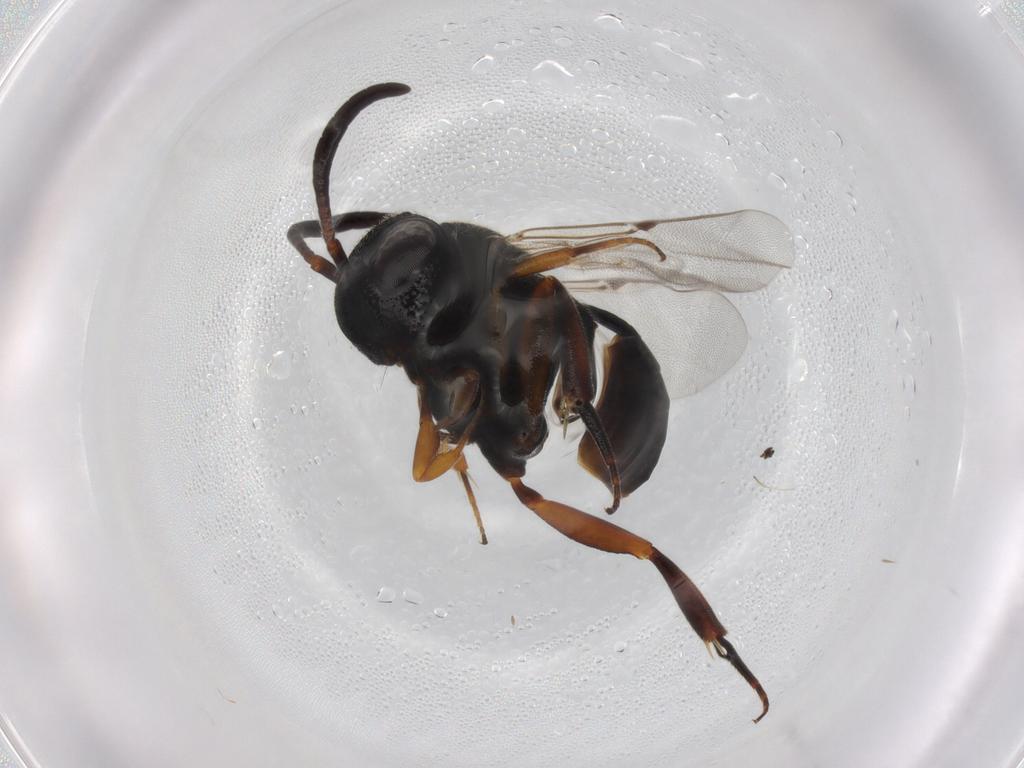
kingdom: Animalia
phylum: Arthropoda
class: Insecta
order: Hymenoptera
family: Evaniidae
